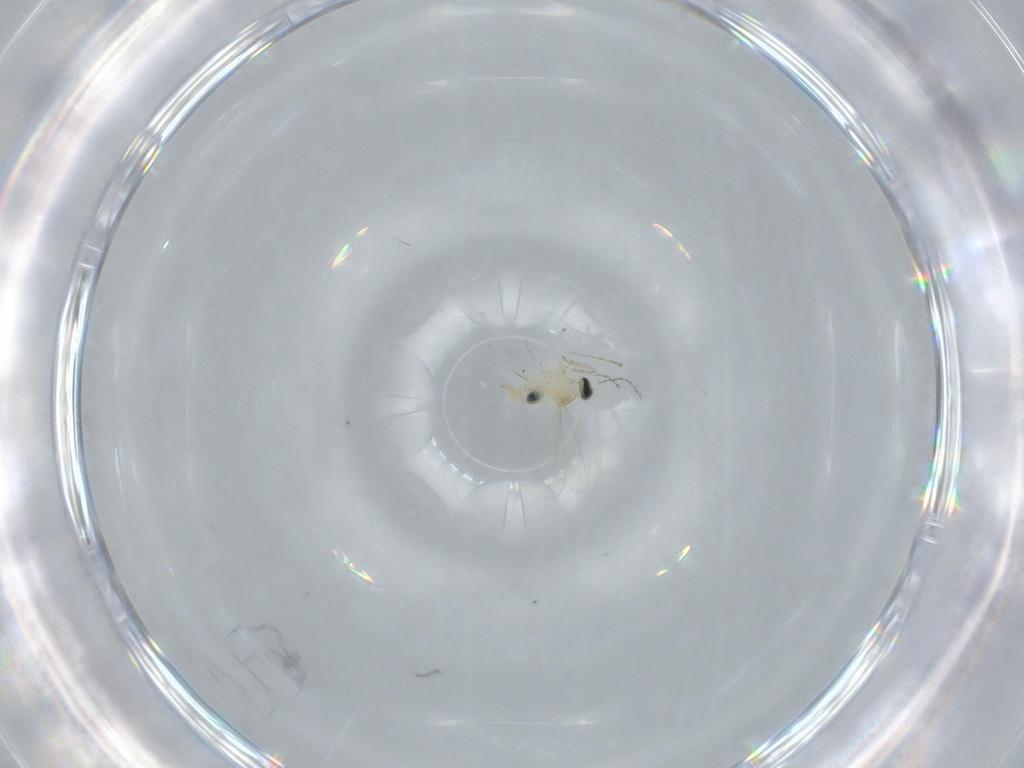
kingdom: Animalia
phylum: Arthropoda
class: Insecta
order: Diptera
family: Cecidomyiidae
